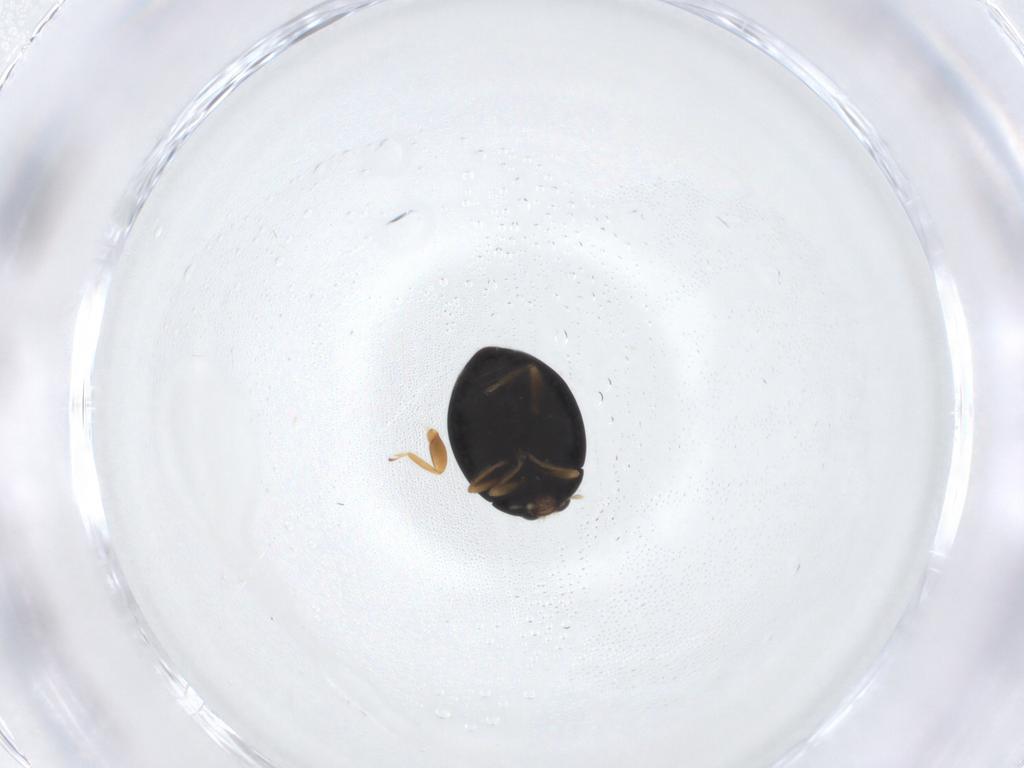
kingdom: Animalia
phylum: Arthropoda
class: Insecta
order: Coleoptera
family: Coccinellidae
